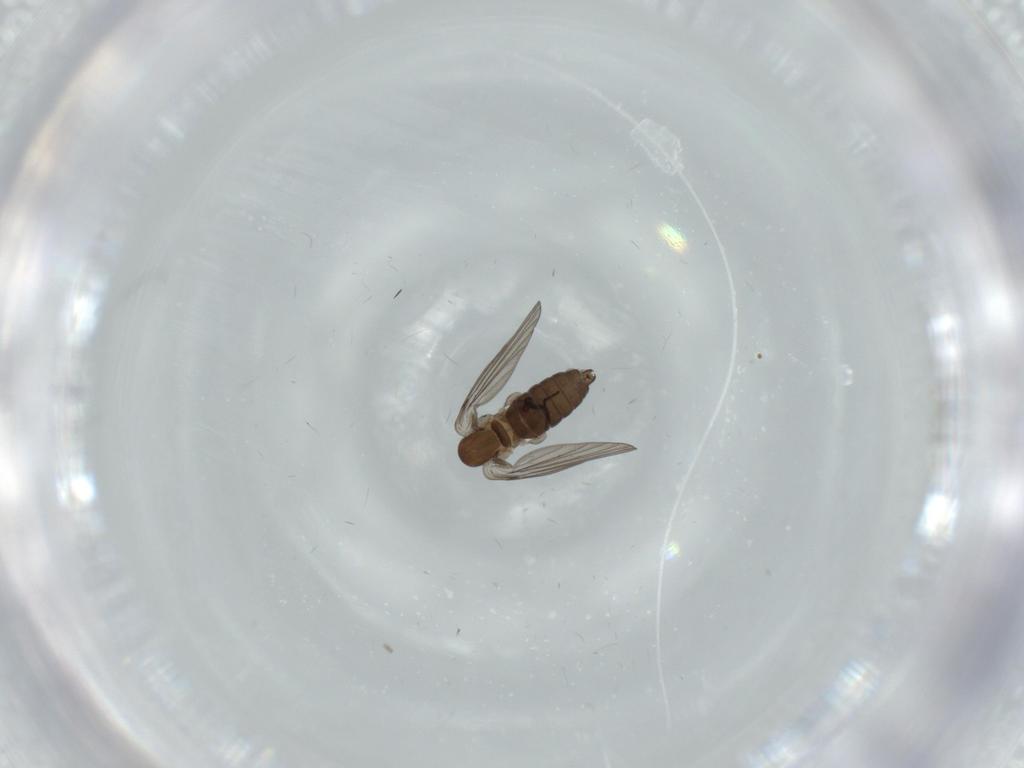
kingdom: Animalia
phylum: Arthropoda
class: Insecta
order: Diptera
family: Psychodidae
